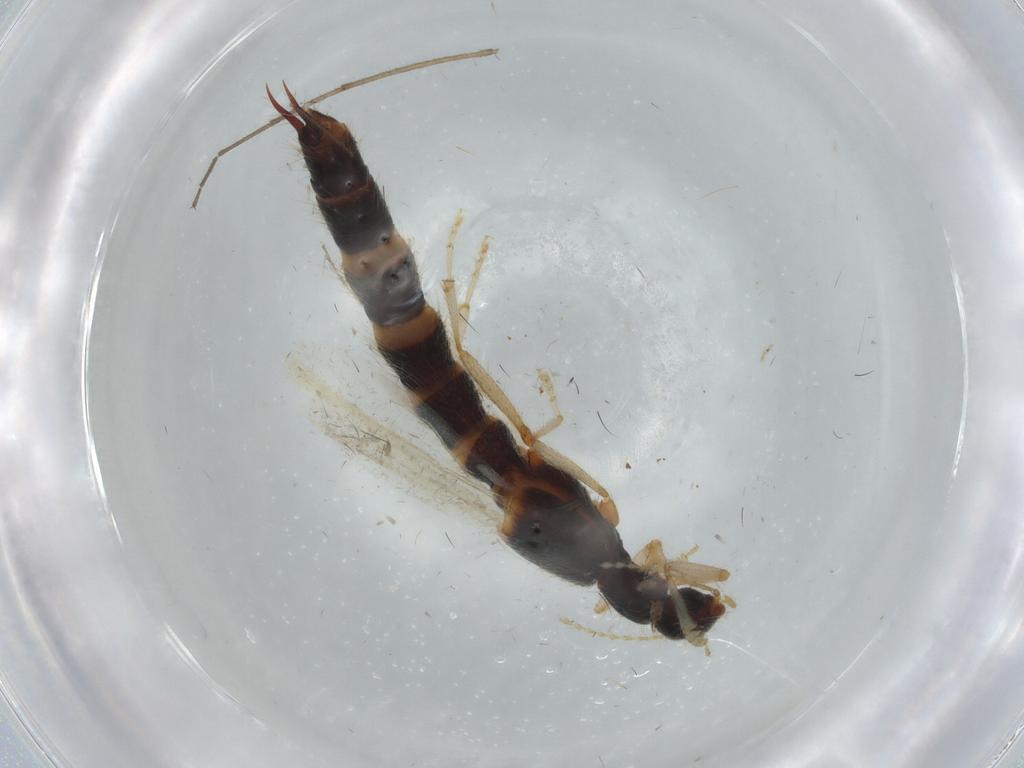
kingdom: Animalia
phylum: Arthropoda
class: Insecta
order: Coleoptera
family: Staphylinidae
